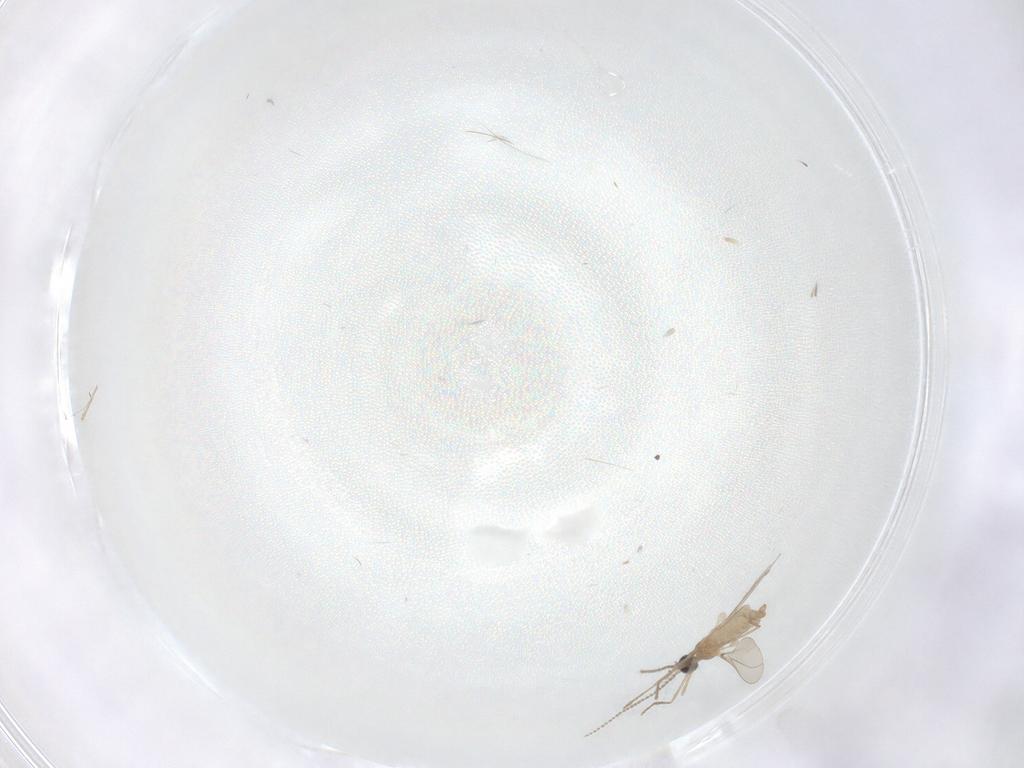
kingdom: Animalia
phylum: Arthropoda
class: Insecta
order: Diptera
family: Cecidomyiidae
